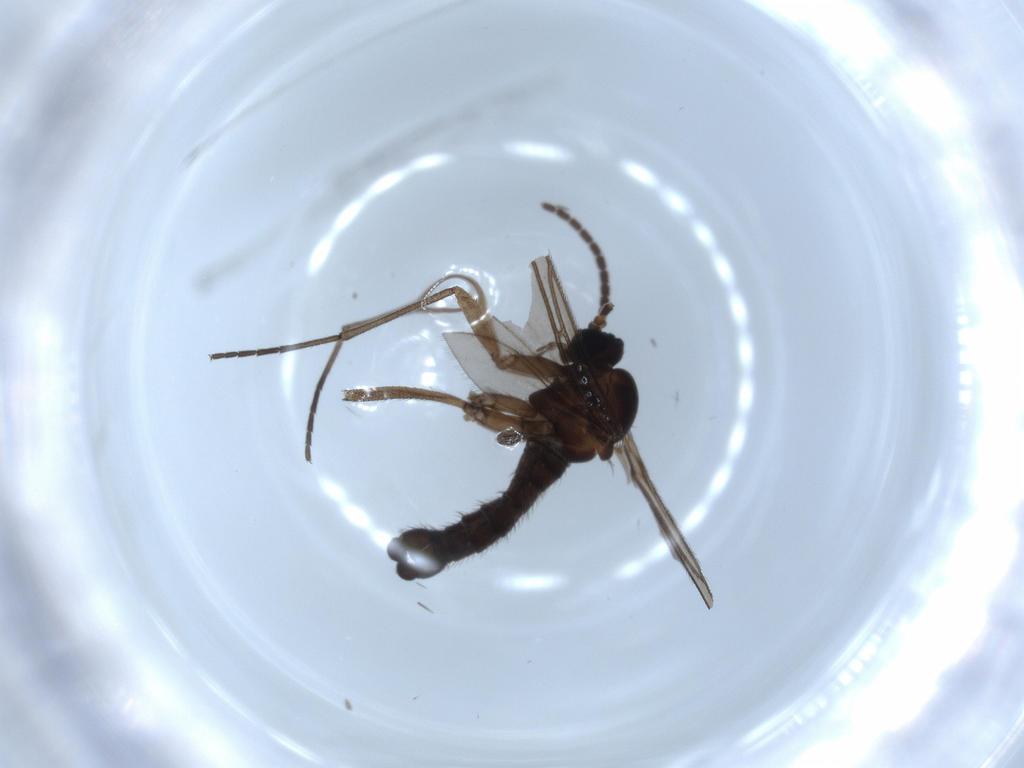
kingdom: Animalia
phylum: Arthropoda
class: Insecta
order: Diptera
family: Sciaridae
